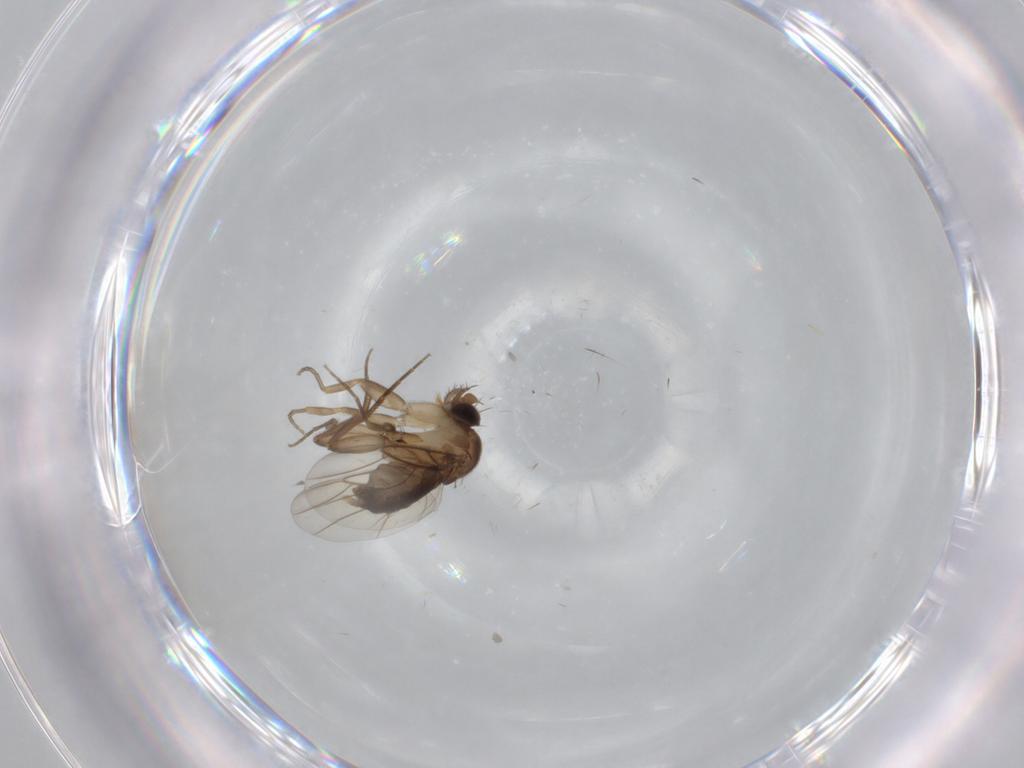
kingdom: Animalia
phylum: Arthropoda
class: Insecta
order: Diptera
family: Phoridae
